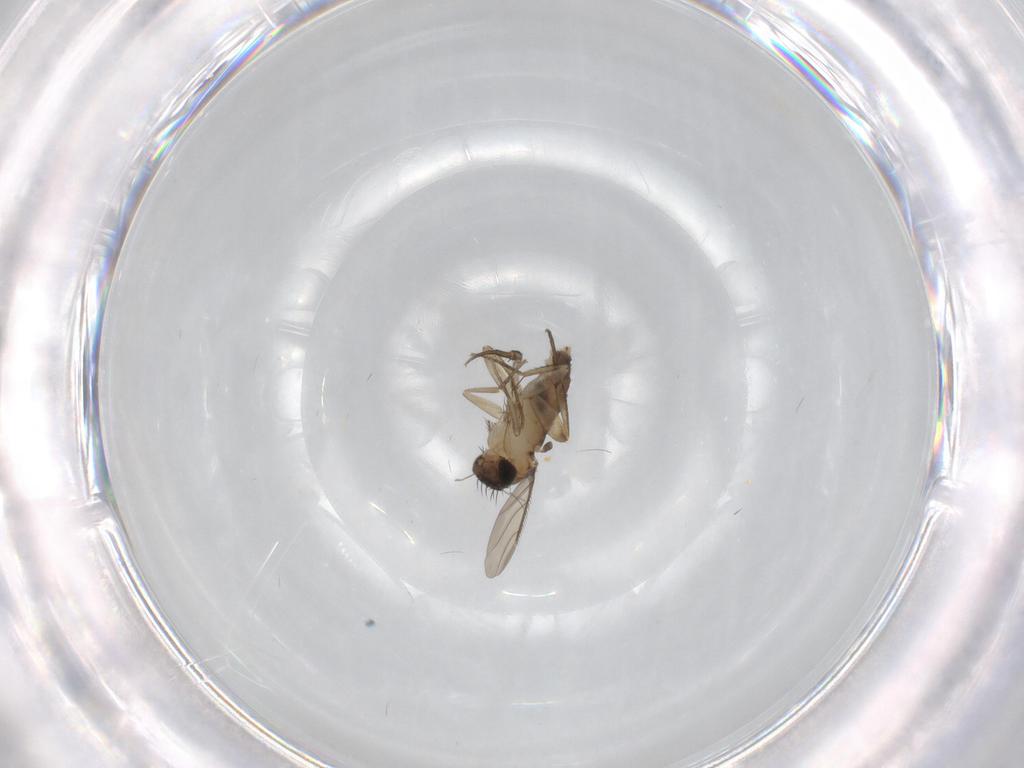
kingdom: Animalia
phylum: Arthropoda
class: Insecta
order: Diptera
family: Phoridae
